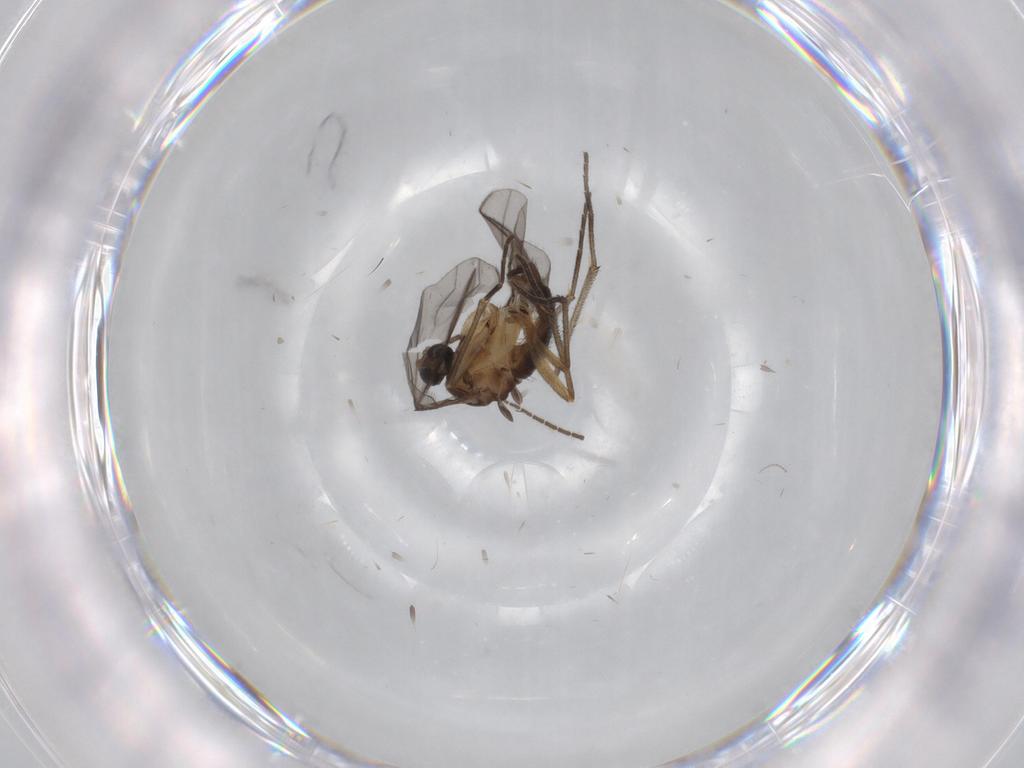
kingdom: Animalia
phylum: Arthropoda
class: Insecta
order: Diptera
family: Sciaridae
